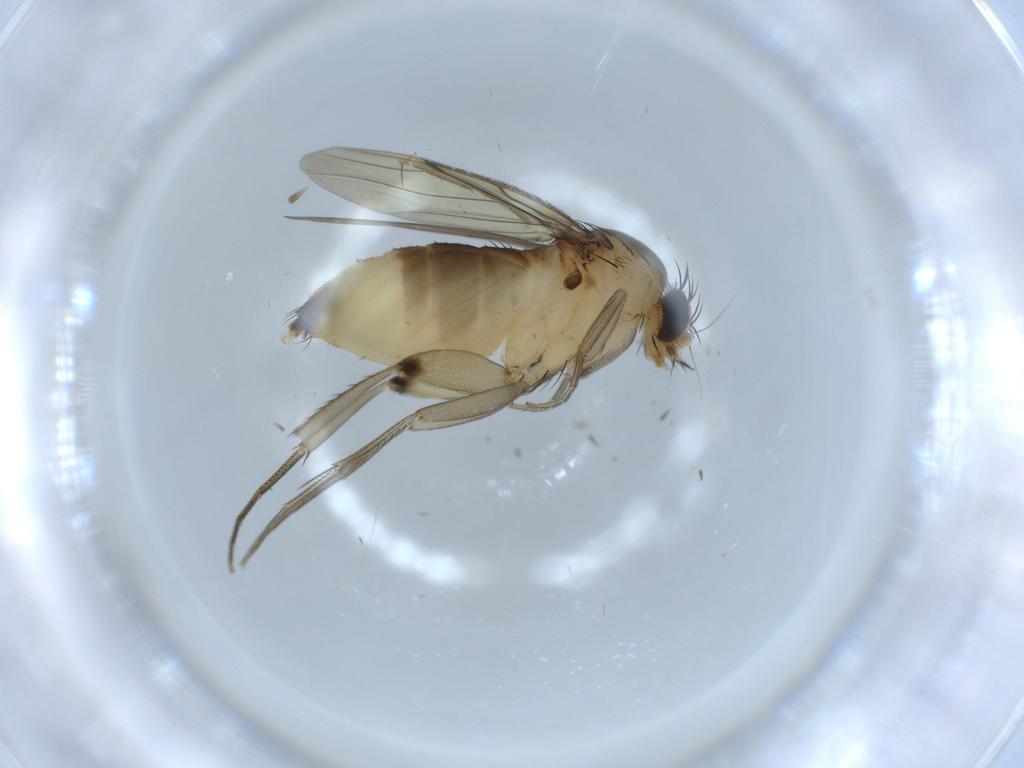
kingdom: Animalia
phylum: Arthropoda
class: Insecta
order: Diptera
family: Phoridae
